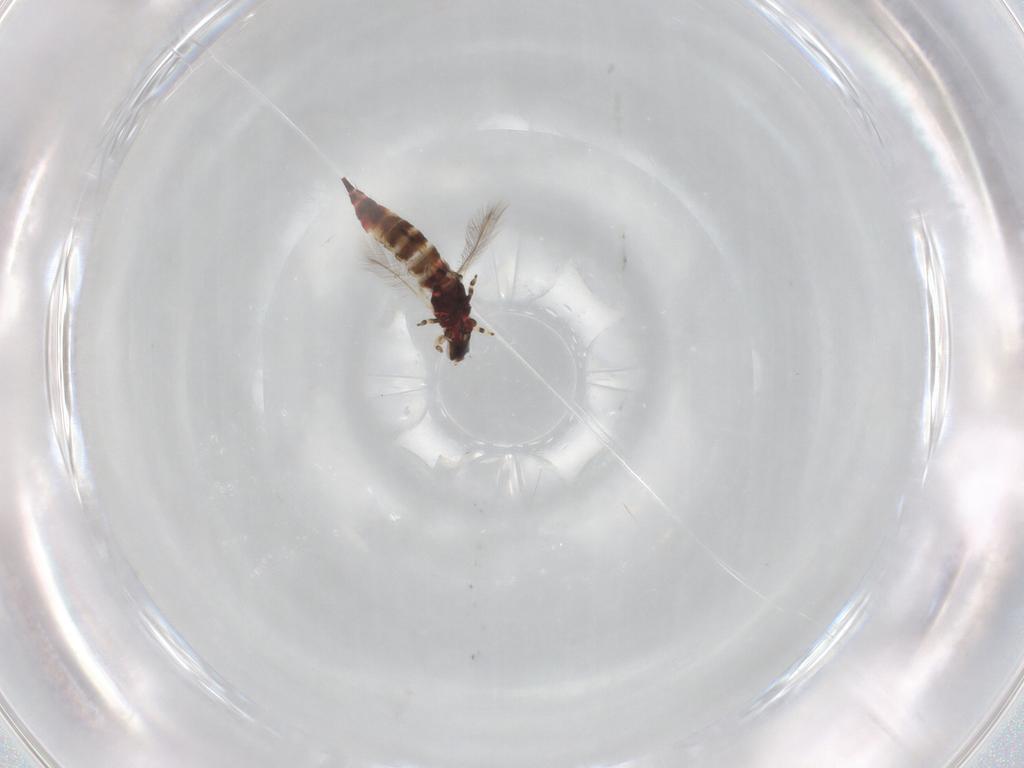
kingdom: Animalia
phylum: Arthropoda
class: Insecta
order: Thysanoptera
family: Phlaeothripidae
